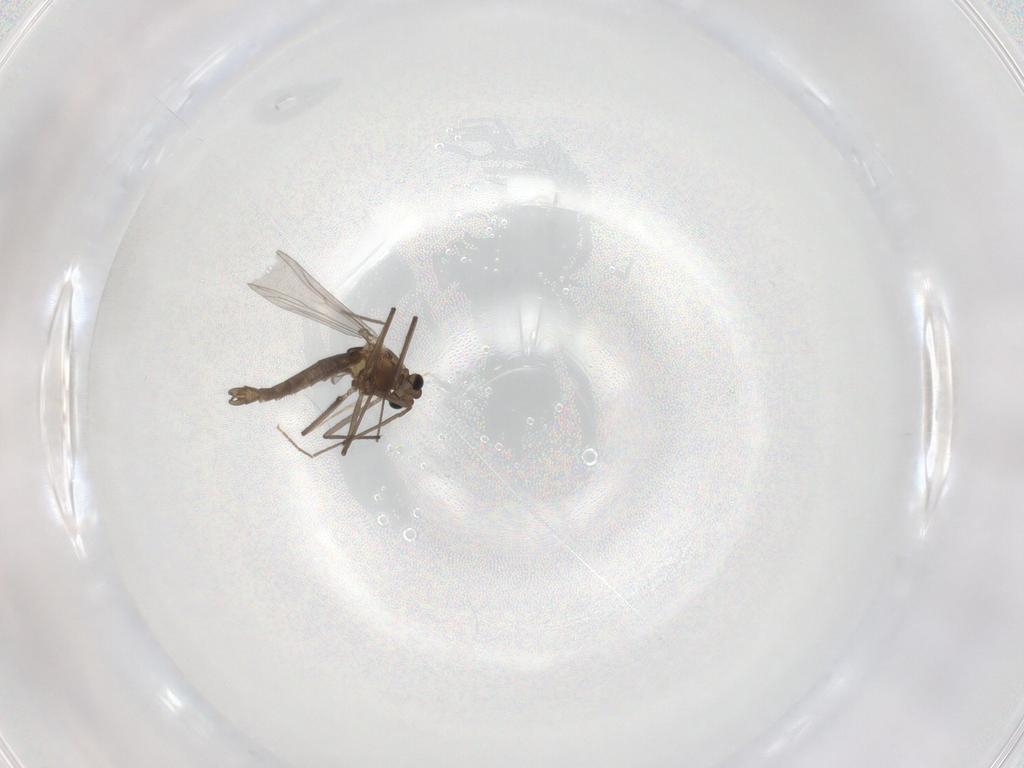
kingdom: Animalia
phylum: Arthropoda
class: Insecta
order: Diptera
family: Chironomidae
